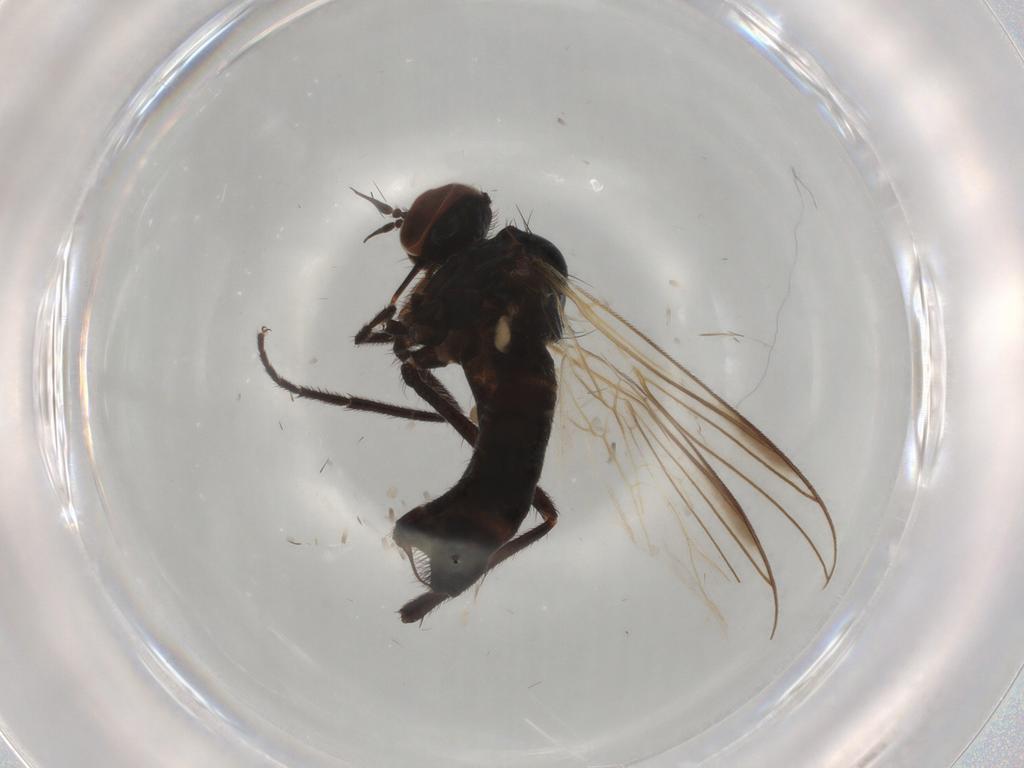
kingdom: Animalia
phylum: Arthropoda
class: Insecta
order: Diptera
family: Empididae
